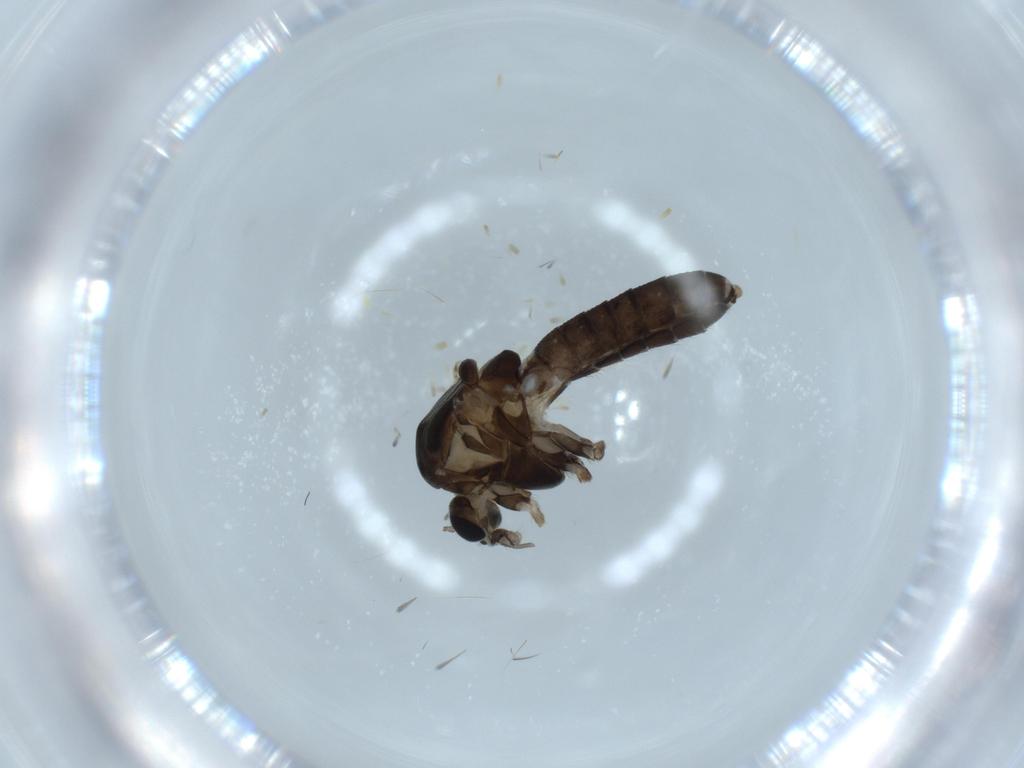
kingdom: Animalia
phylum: Arthropoda
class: Insecta
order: Diptera
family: Chironomidae
